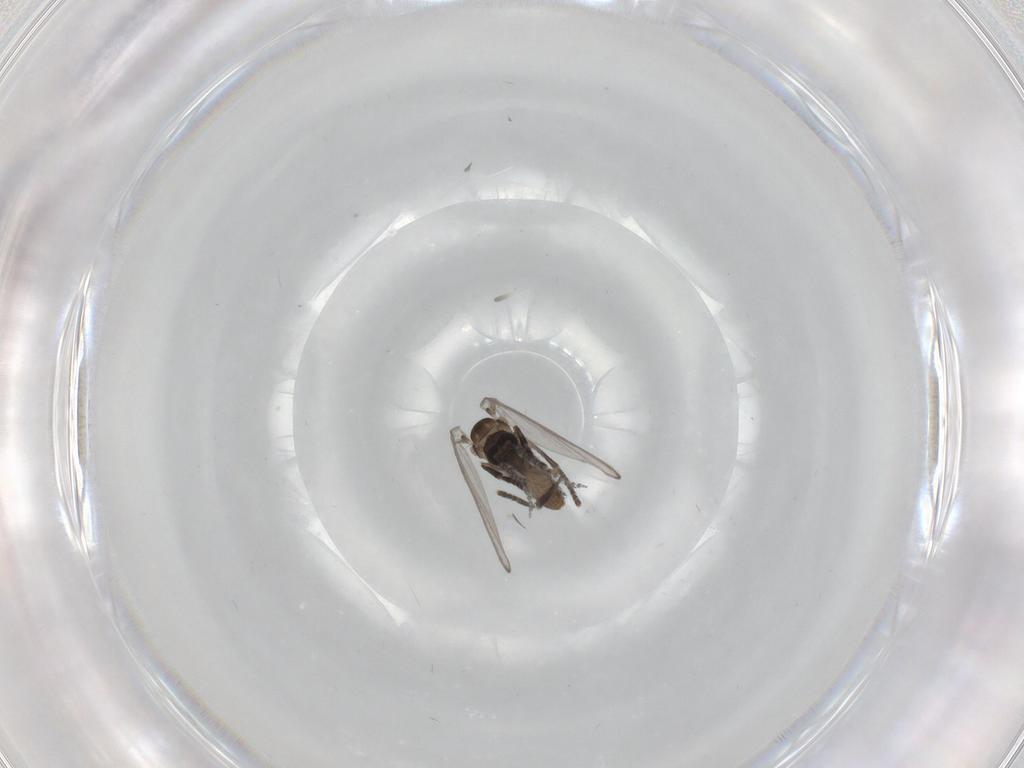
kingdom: Animalia
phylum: Arthropoda
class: Insecta
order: Diptera
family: Psychodidae
